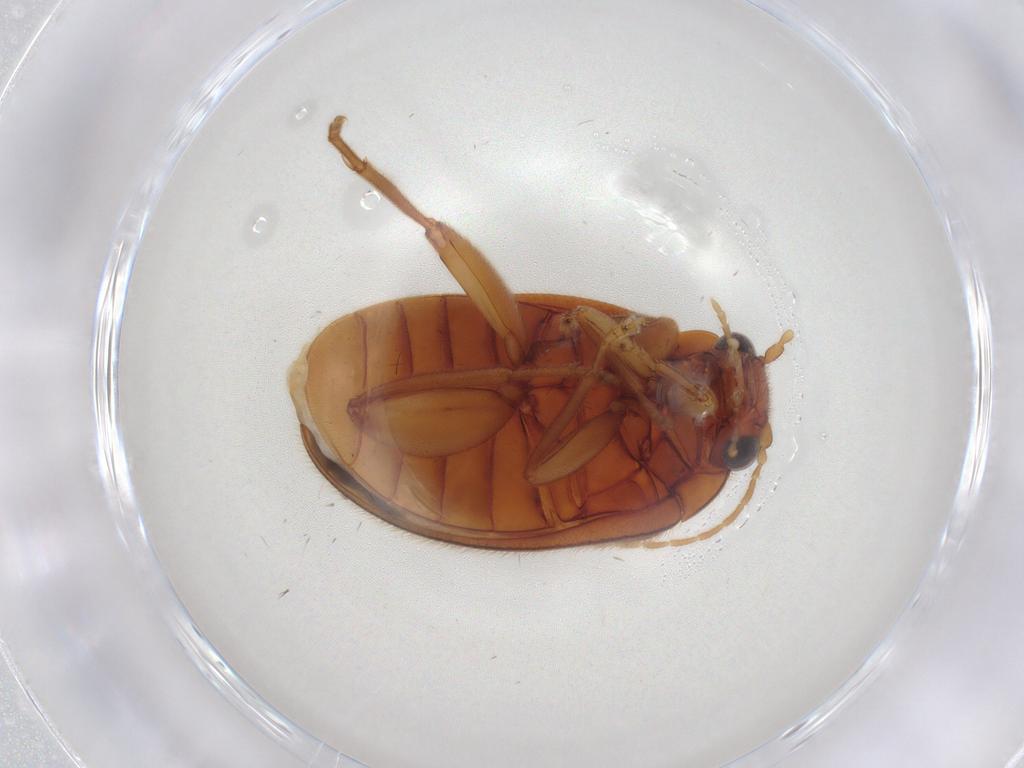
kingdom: Animalia
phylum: Arthropoda
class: Insecta
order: Coleoptera
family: Scirtidae
